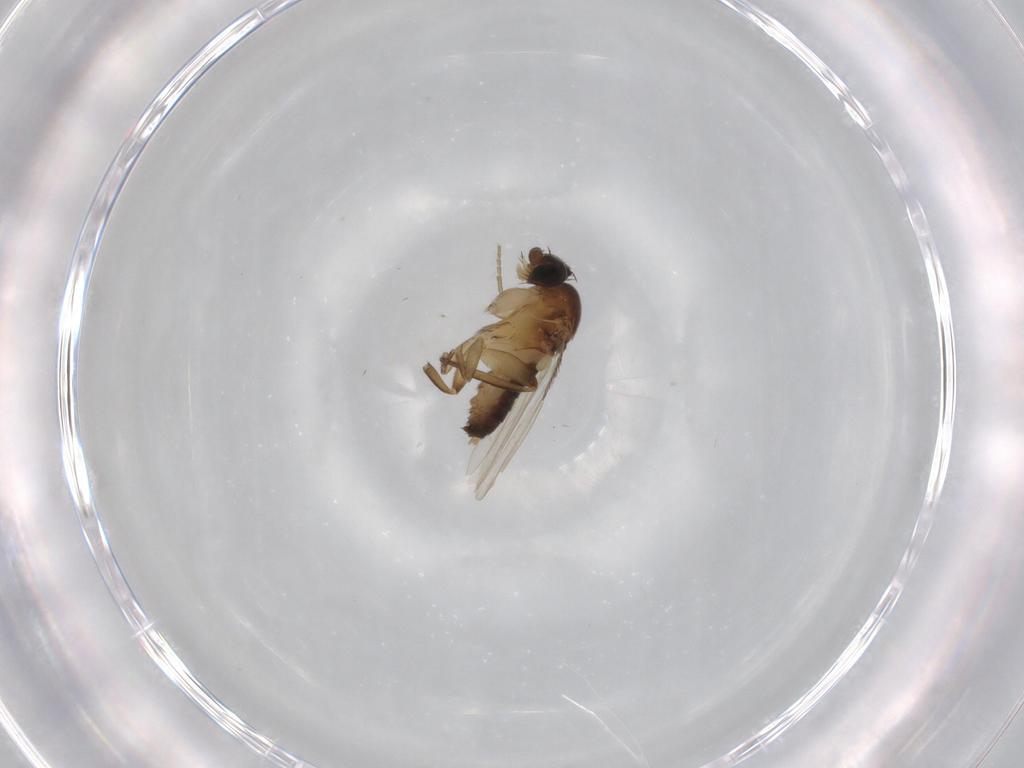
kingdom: Animalia
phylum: Arthropoda
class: Insecta
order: Diptera
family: Phoridae
